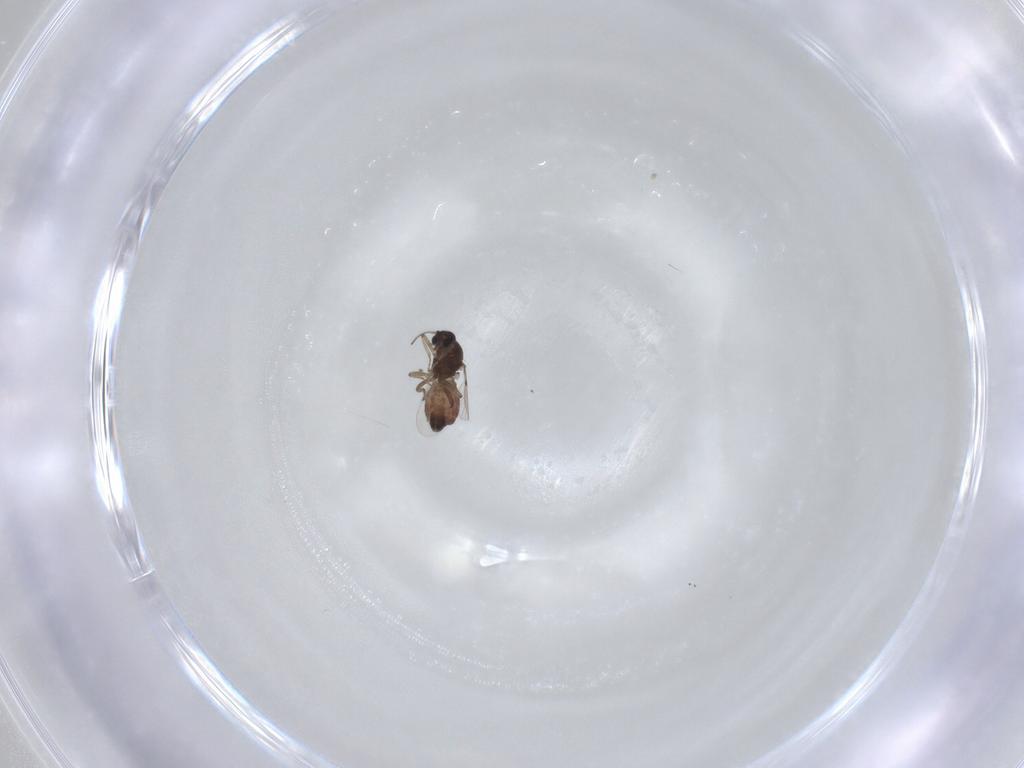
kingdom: Animalia
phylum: Arthropoda
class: Insecta
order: Diptera
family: Ceratopogonidae
